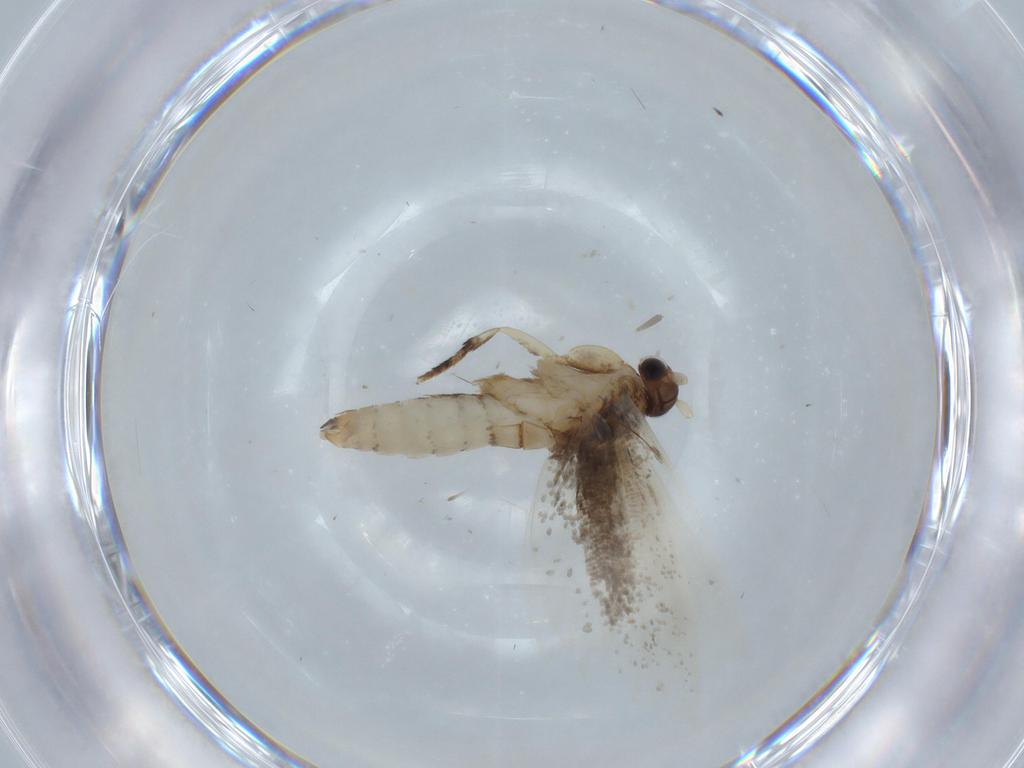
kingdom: Animalia
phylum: Arthropoda
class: Insecta
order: Lepidoptera
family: Tineidae
